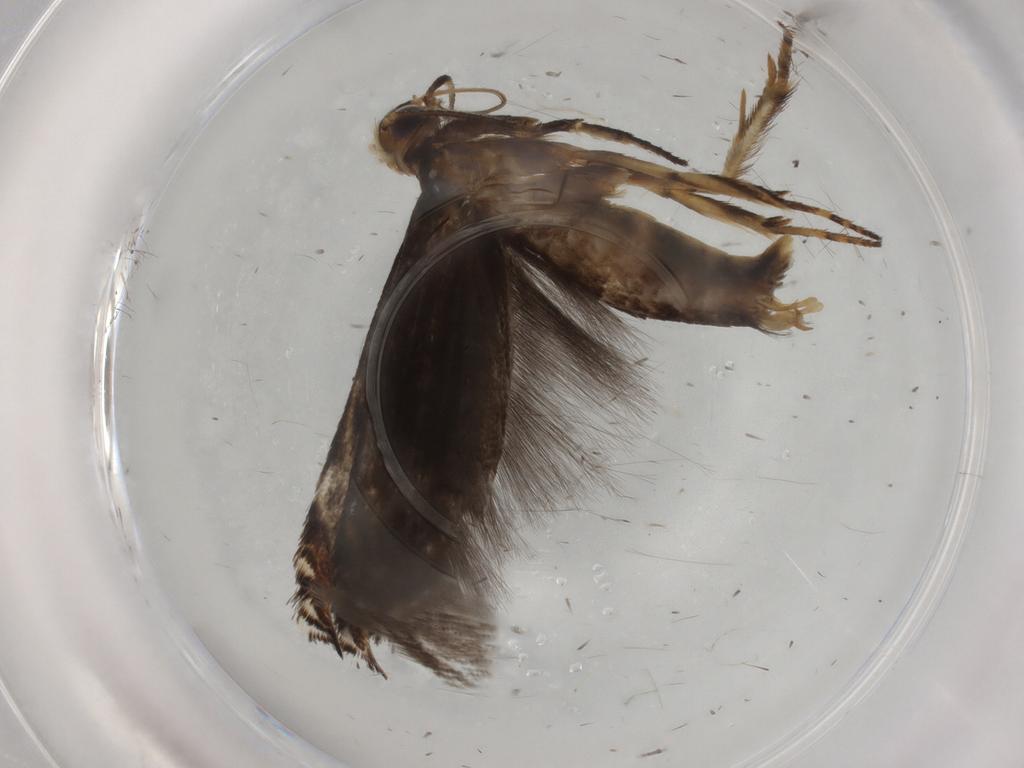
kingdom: Animalia
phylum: Arthropoda
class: Insecta
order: Lepidoptera
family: Gelechiidae
